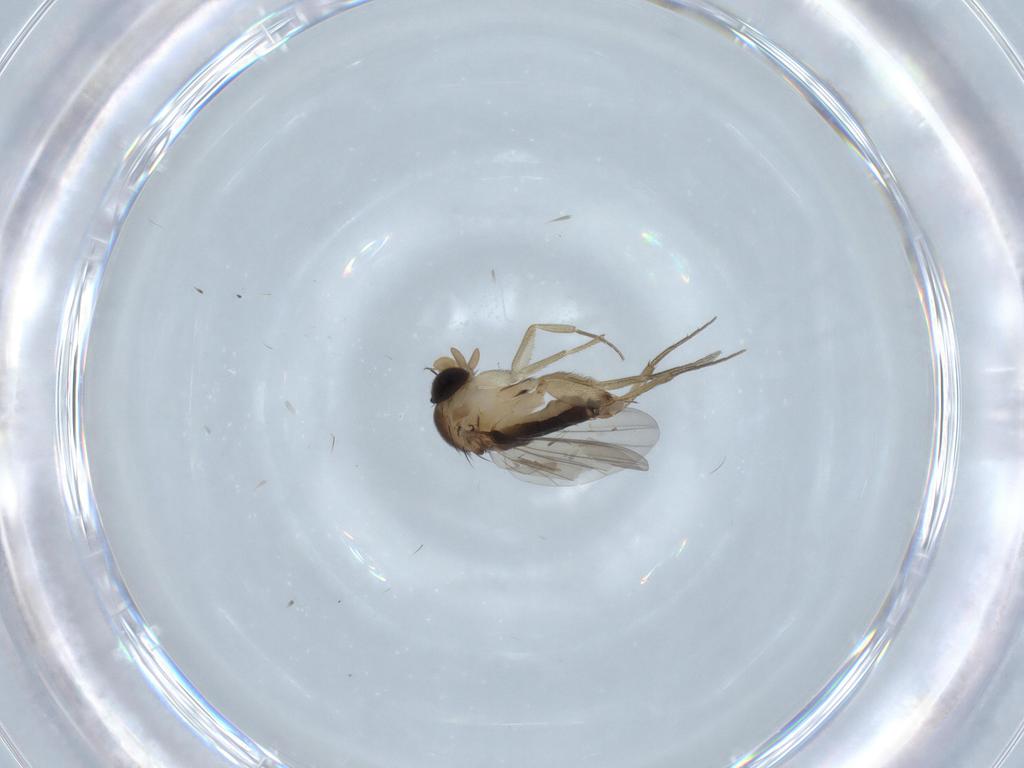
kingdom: Animalia
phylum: Arthropoda
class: Insecta
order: Diptera
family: Phoridae
